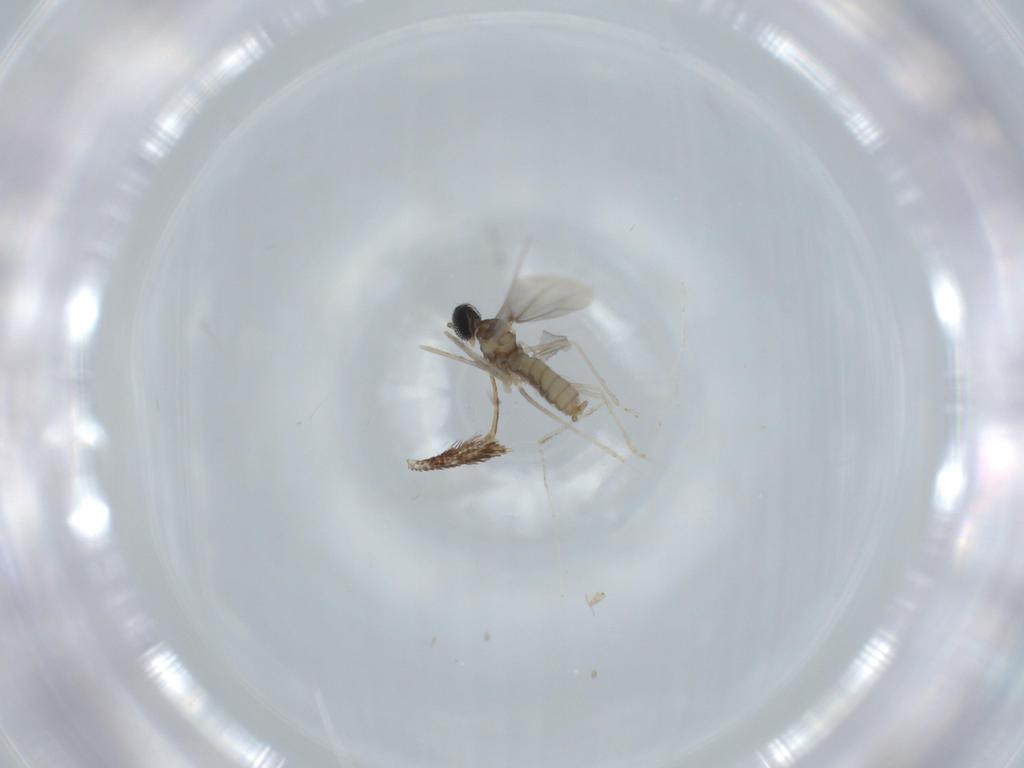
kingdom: Animalia
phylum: Arthropoda
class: Insecta
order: Diptera
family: Cecidomyiidae
